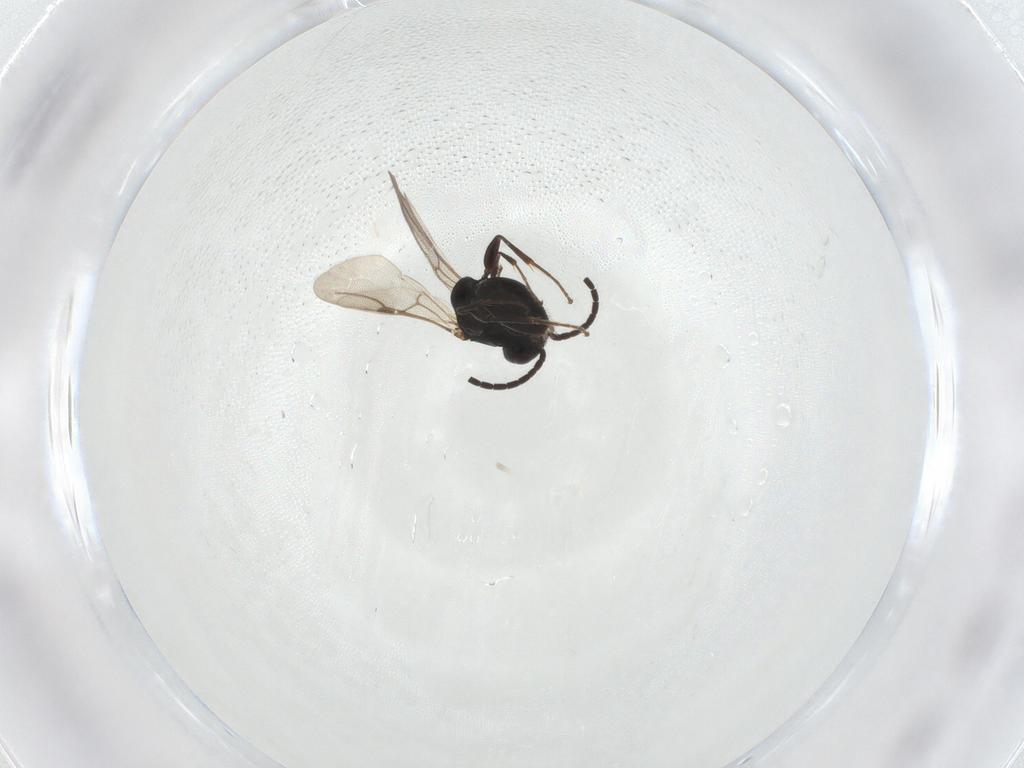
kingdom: Animalia
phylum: Arthropoda
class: Insecta
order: Hymenoptera
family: Bethylidae
